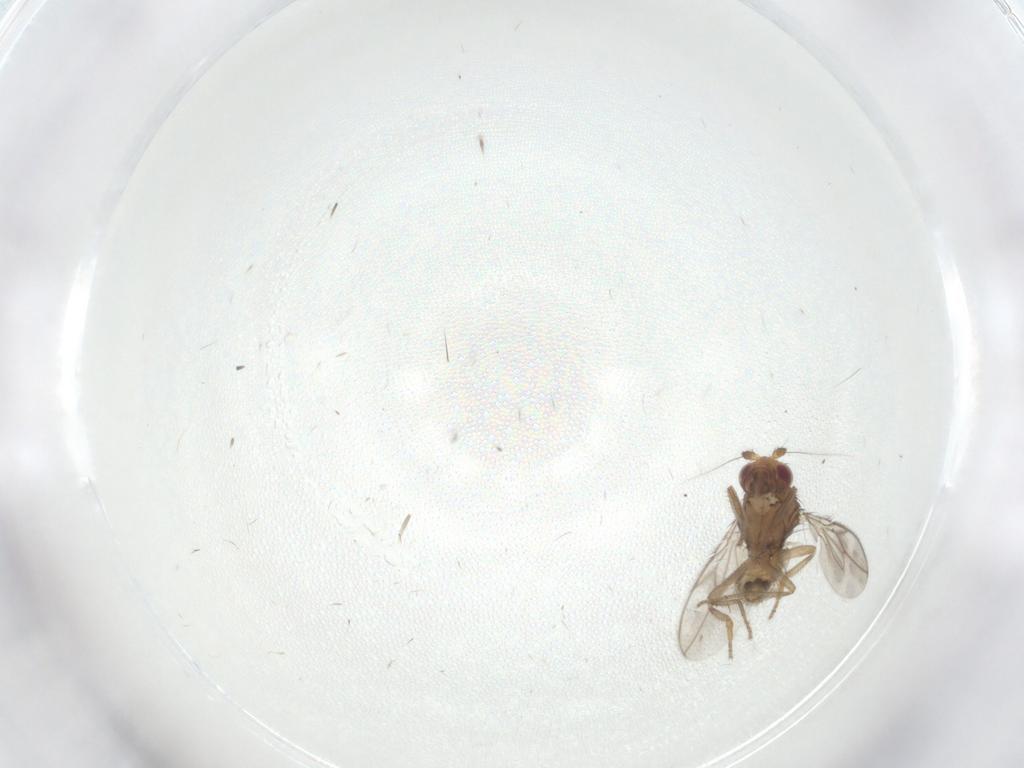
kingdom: Animalia
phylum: Arthropoda
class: Insecta
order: Diptera
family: Sphaeroceridae
